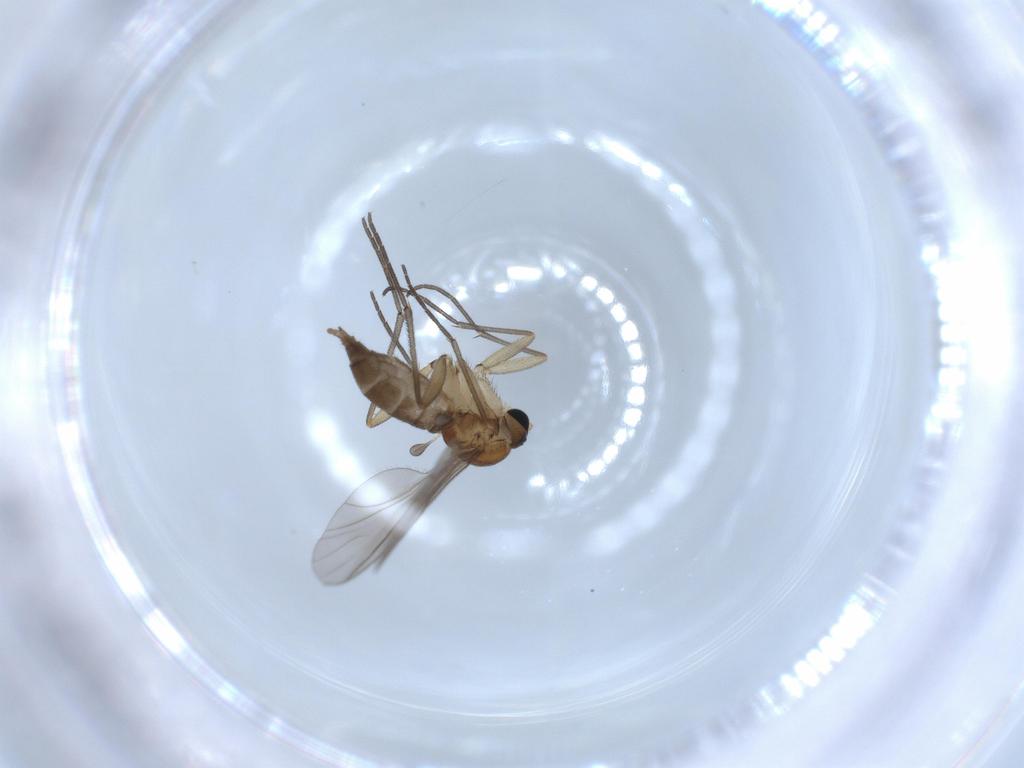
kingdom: Animalia
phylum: Arthropoda
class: Insecta
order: Diptera
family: Sciaridae
